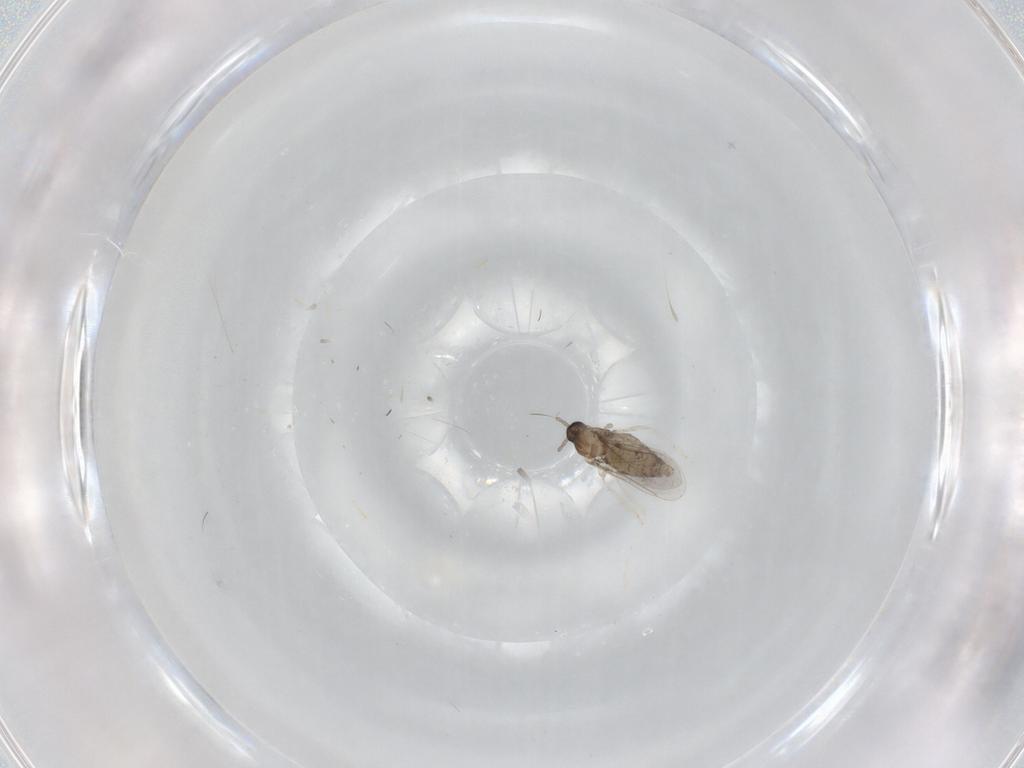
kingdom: Animalia
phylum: Arthropoda
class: Insecta
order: Diptera
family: Cecidomyiidae
